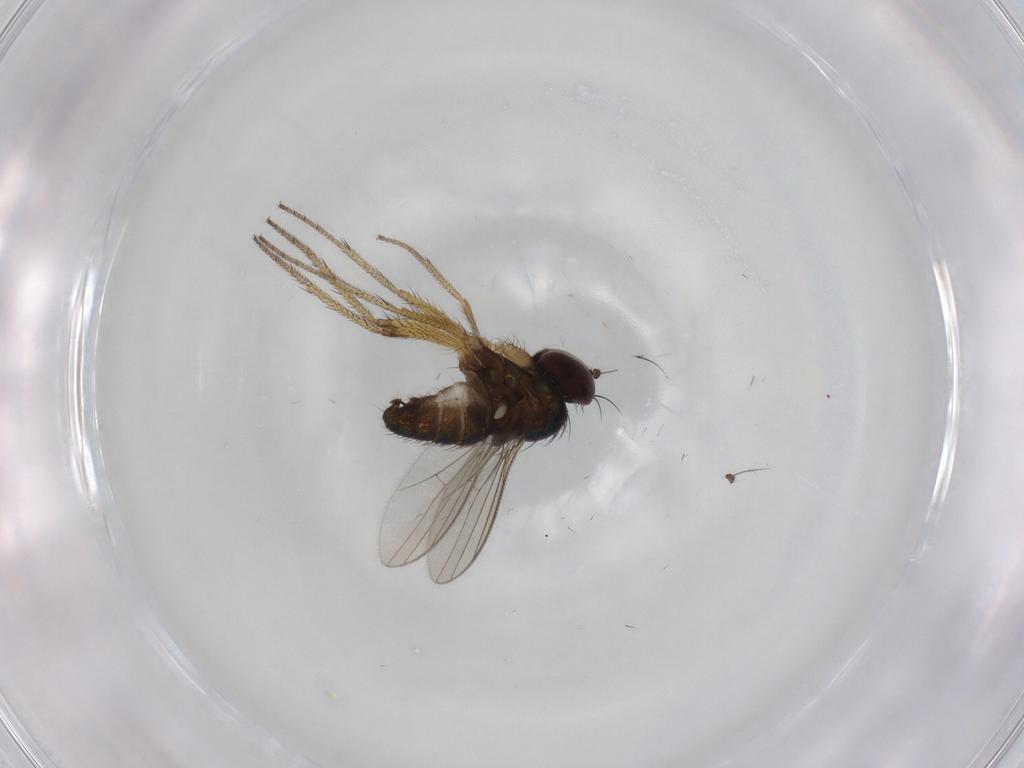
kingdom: Animalia
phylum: Arthropoda
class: Insecta
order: Diptera
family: Dolichopodidae
